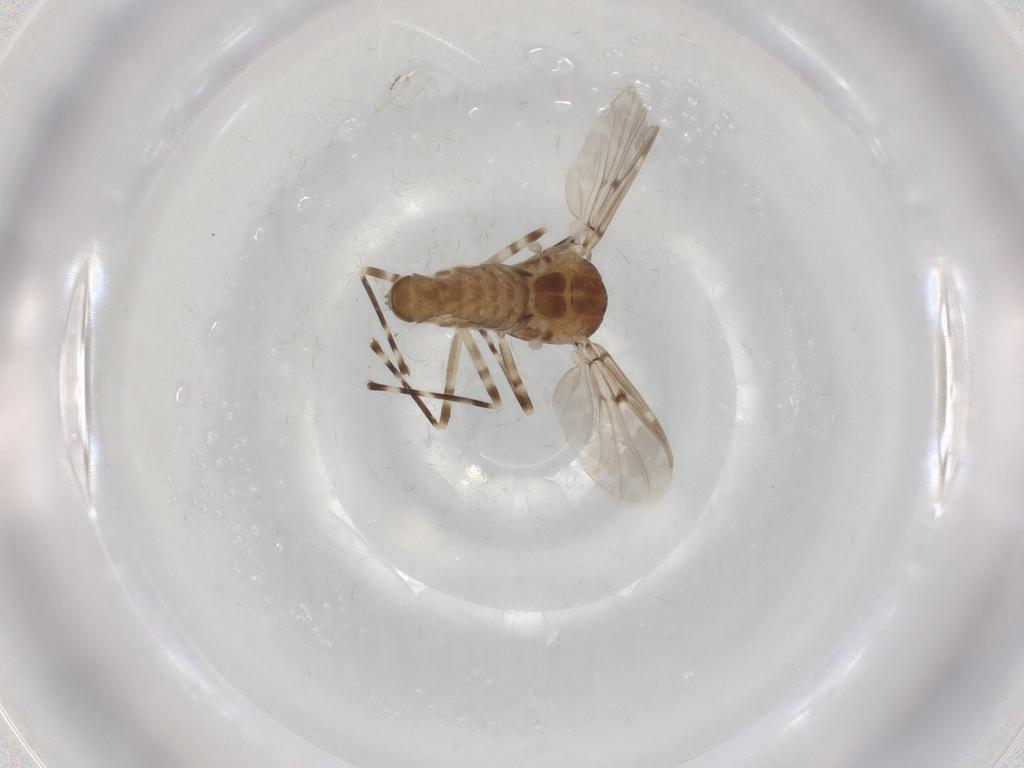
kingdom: Animalia
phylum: Arthropoda
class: Insecta
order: Diptera
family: Chironomidae
